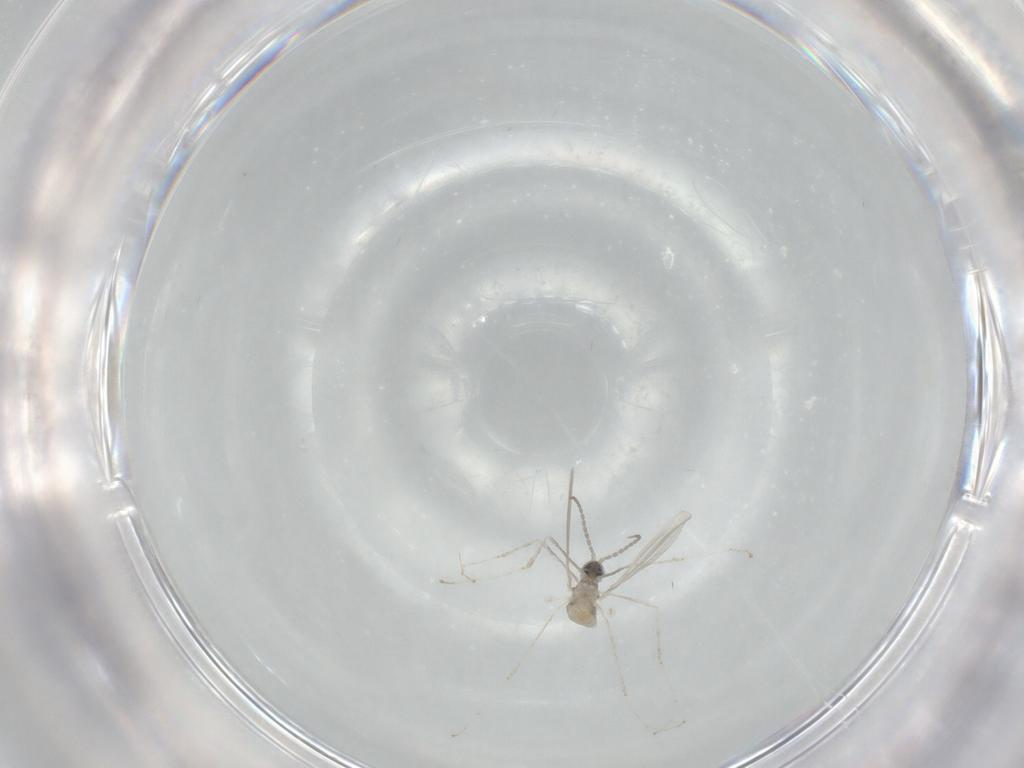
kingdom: Animalia
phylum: Arthropoda
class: Insecta
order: Diptera
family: Cecidomyiidae
